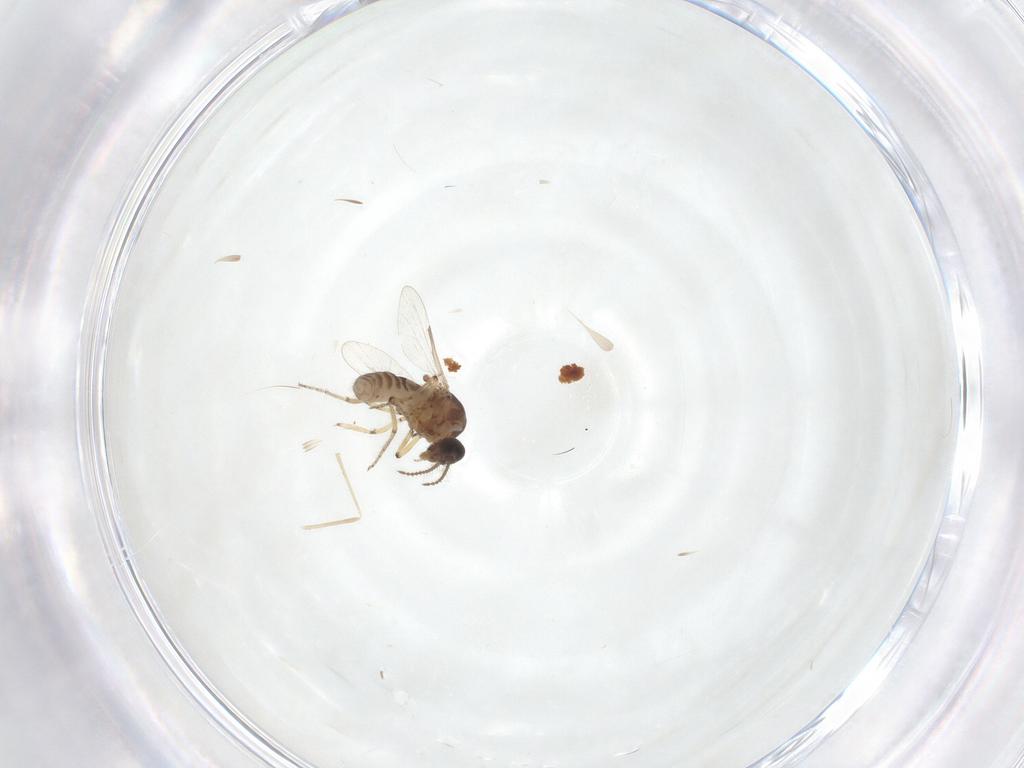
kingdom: Animalia
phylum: Arthropoda
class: Insecta
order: Diptera
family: Ceratopogonidae
